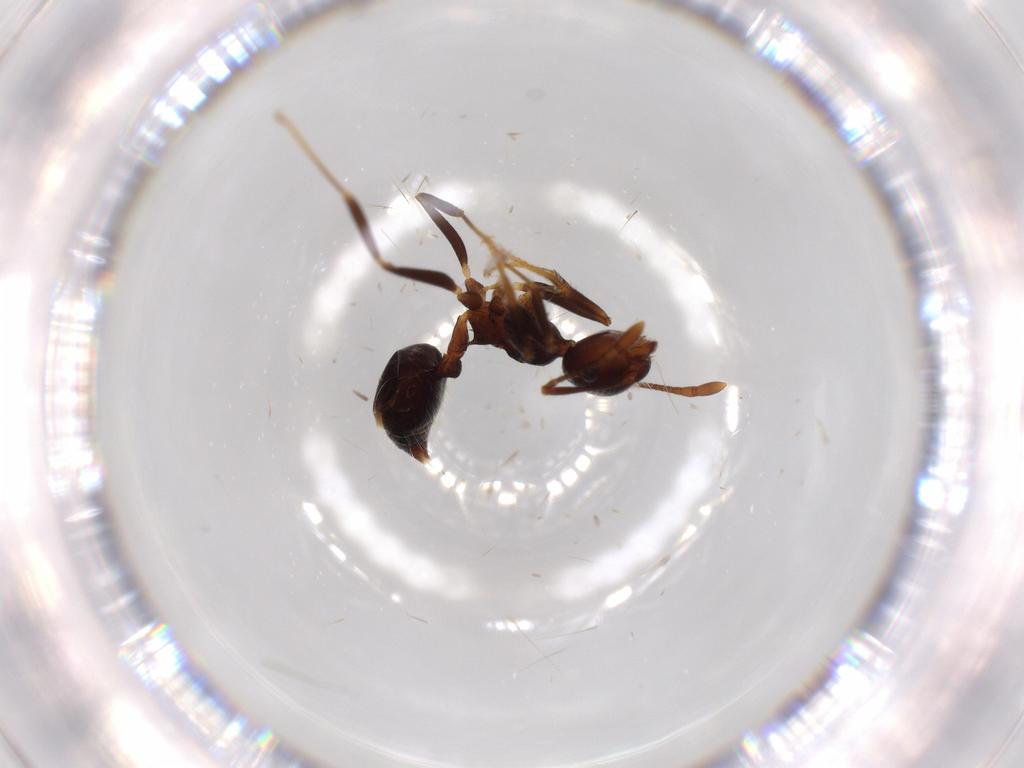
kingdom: Animalia
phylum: Arthropoda
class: Insecta
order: Hymenoptera
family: Formicidae
